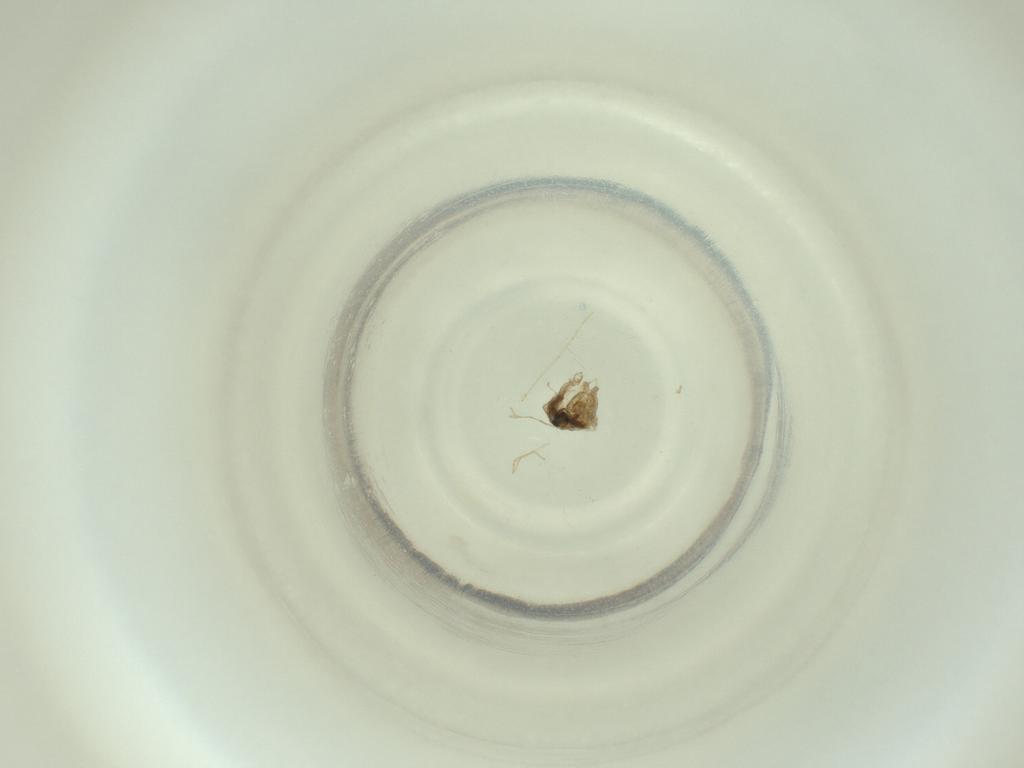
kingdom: Animalia
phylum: Arthropoda
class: Insecta
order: Diptera
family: Cecidomyiidae
